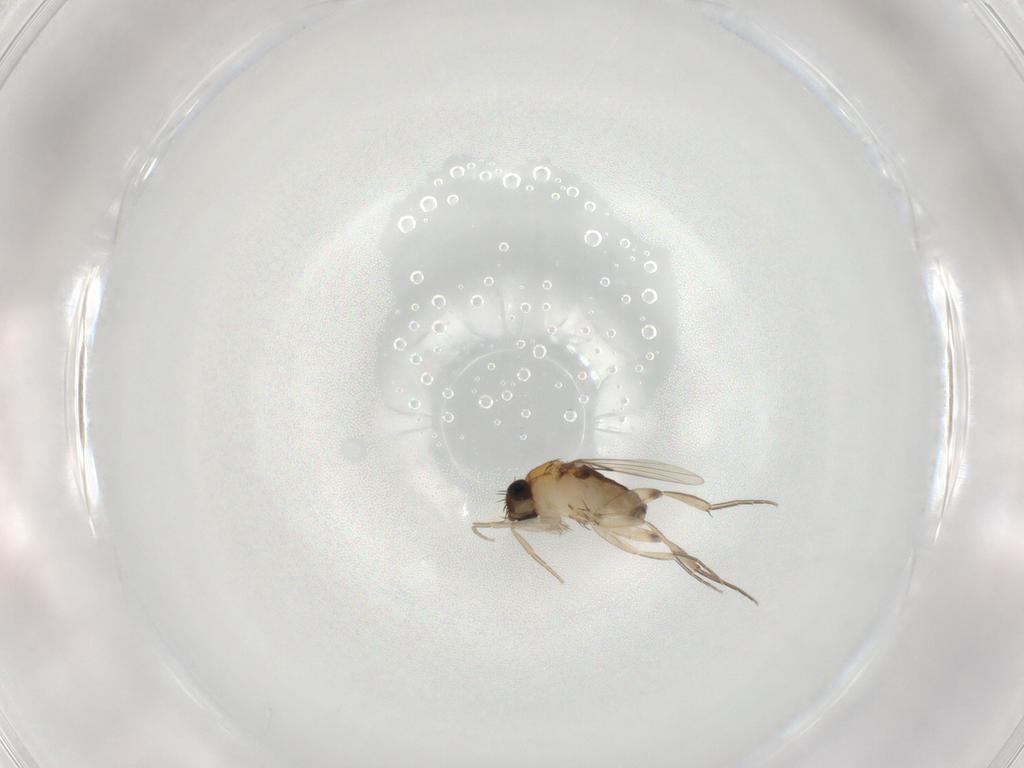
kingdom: Animalia
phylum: Arthropoda
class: Insecta
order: Diptera
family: Phoridae
